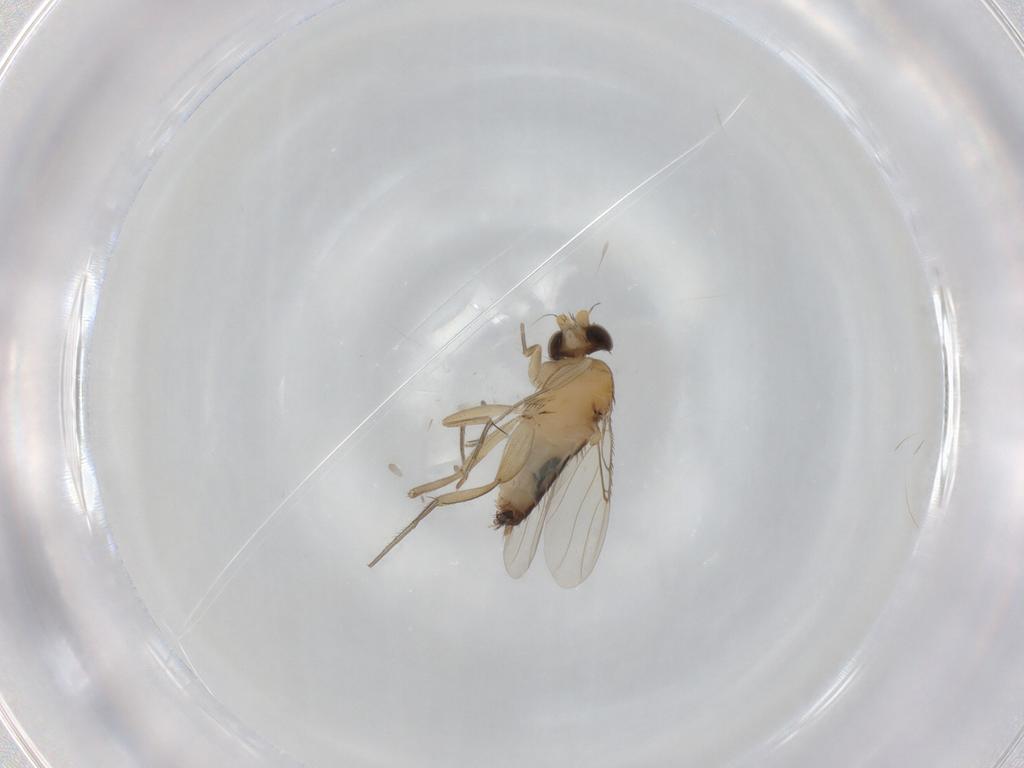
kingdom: Animalia
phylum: Arthropoda
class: Insecta
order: Diptera
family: Phoridae
